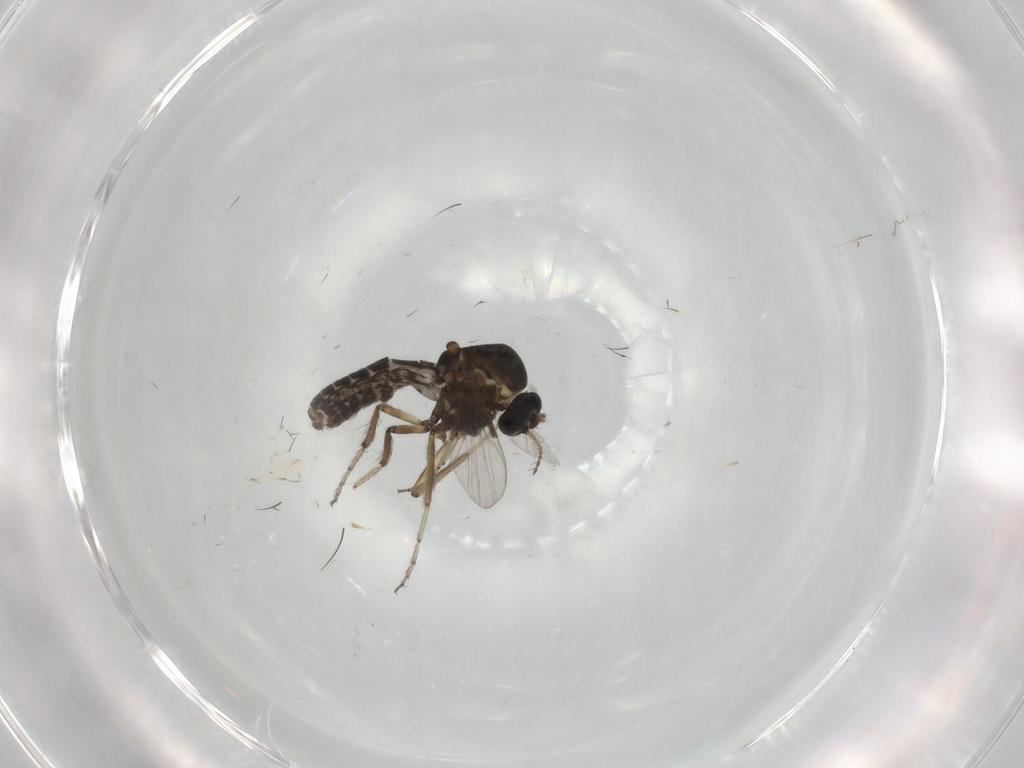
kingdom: Animalia
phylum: Arthropoda
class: Insecta
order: Diptera
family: Ceratopogonidae
